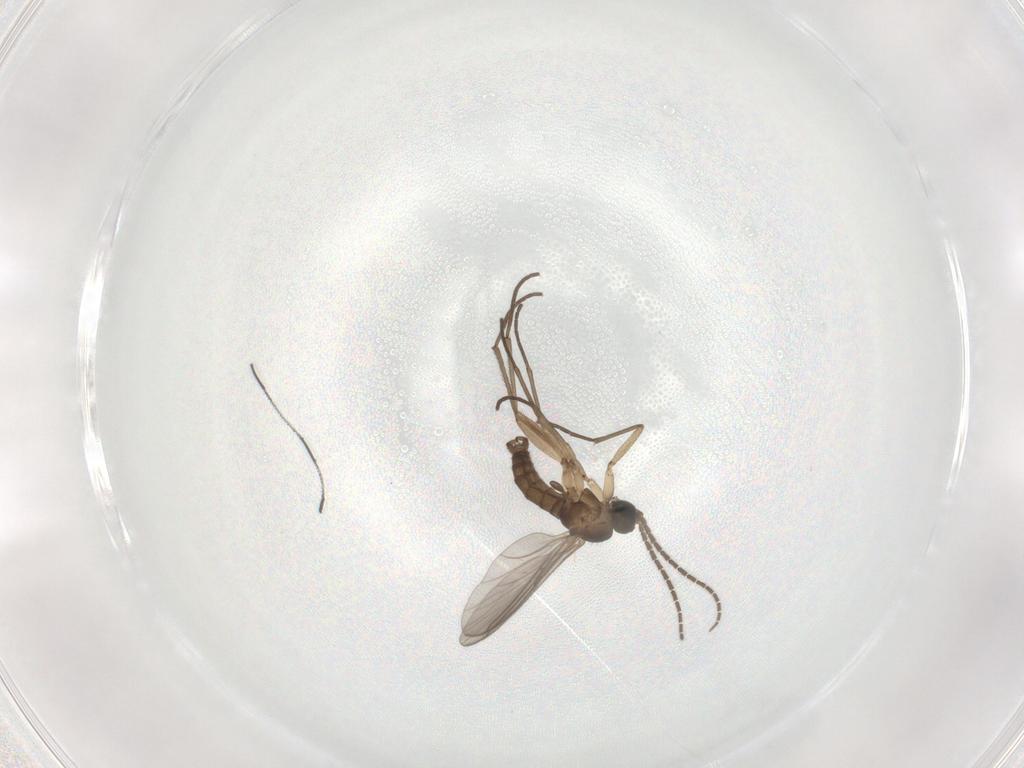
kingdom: Animalia
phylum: Arthropoda
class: Insecta
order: Diptera
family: Sciaridae
